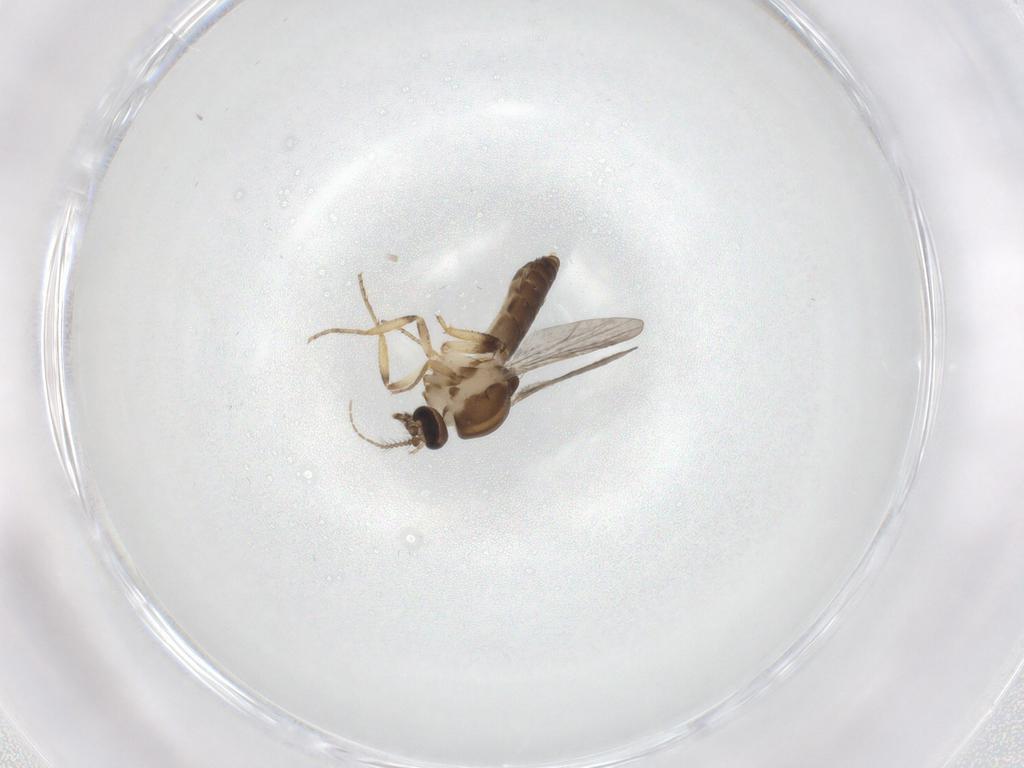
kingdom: Animalia
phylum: Arthropoda
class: Insecta
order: Diptera
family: Ceratopogonidae
